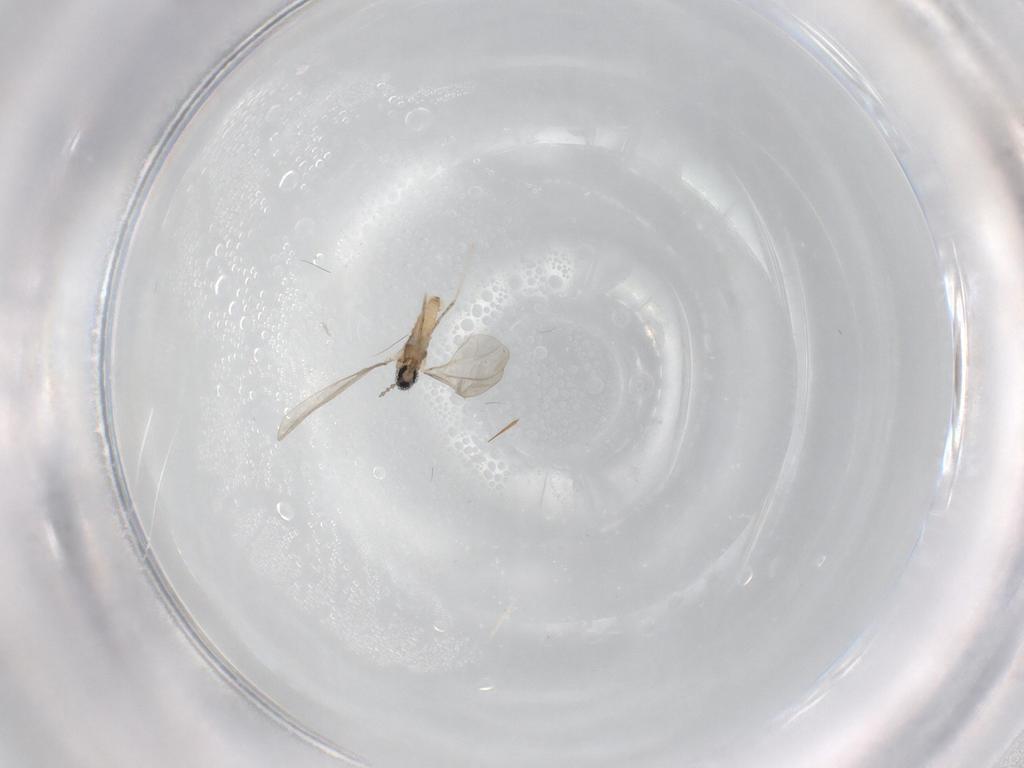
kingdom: Animalia
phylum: Arthropoda
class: Insecta
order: Diptera
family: Cecidomyiidae
